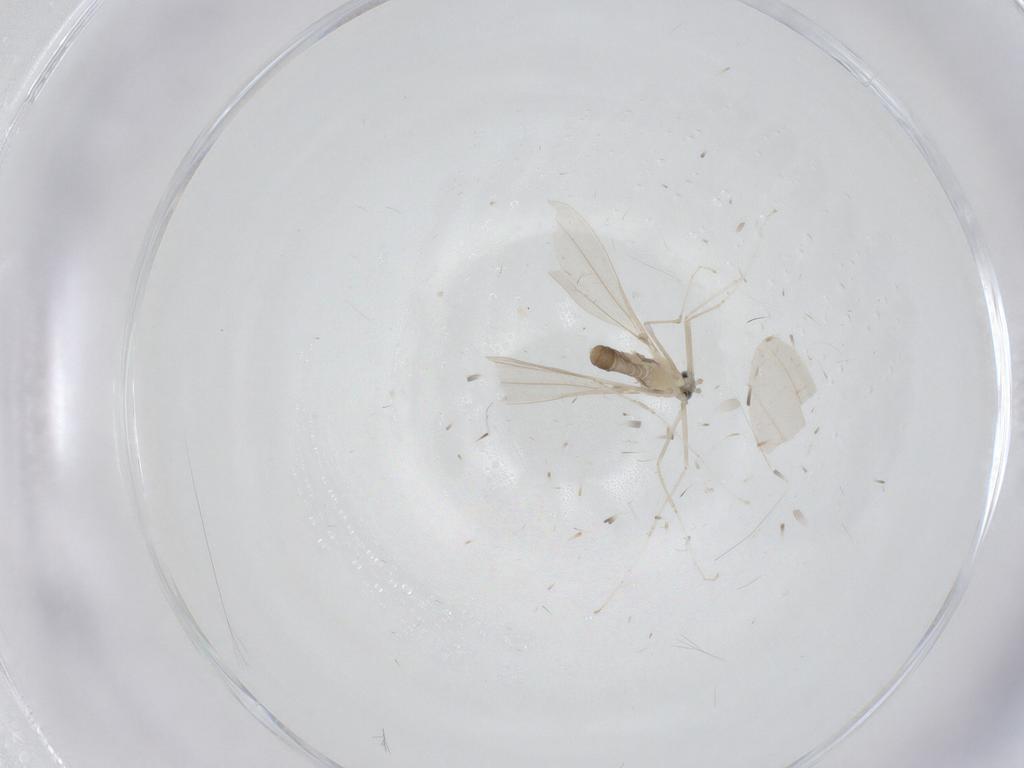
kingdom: Animalia
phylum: Arthropoda
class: Insecta
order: Diptera
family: Cecidomyiidae
